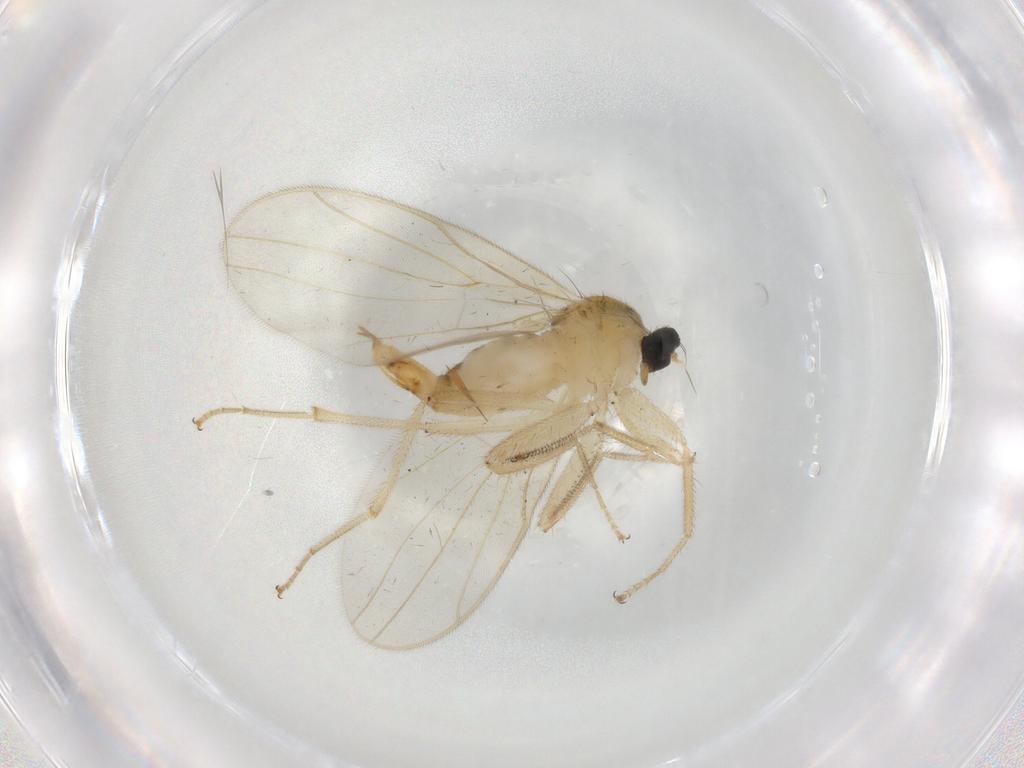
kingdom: Animalia
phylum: Arthropoda
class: Insecta
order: Diptera
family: Hybotidae
